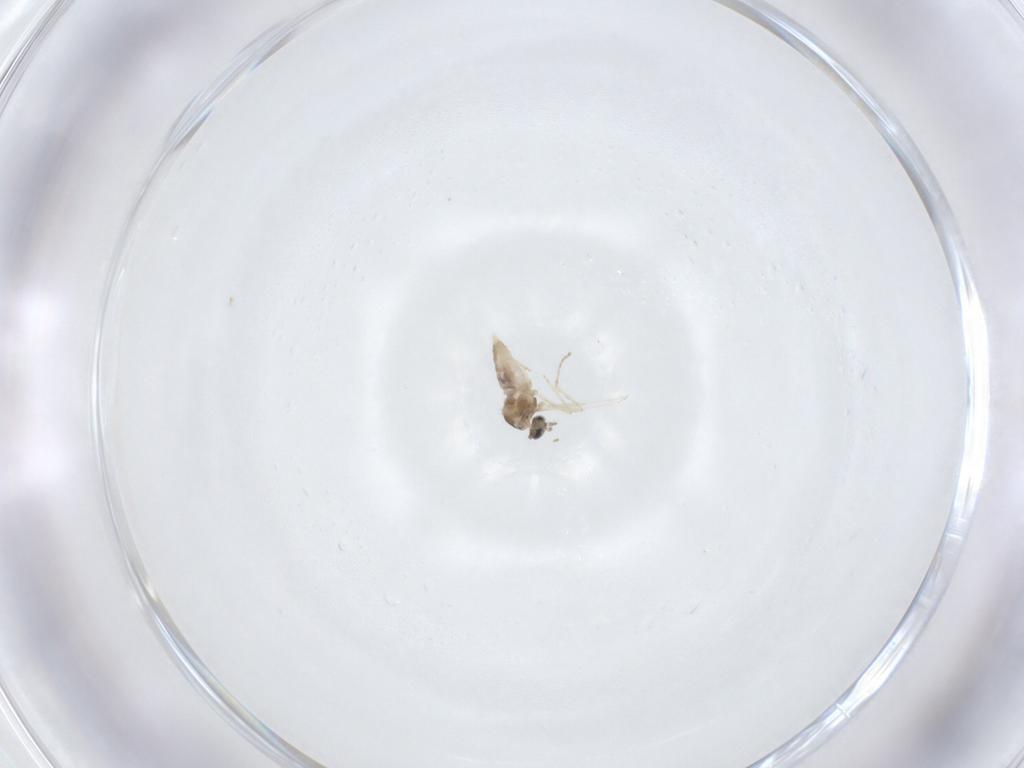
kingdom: Animalia
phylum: Arthropoda
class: Insecta
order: Diptera
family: Cecidomyiidae
